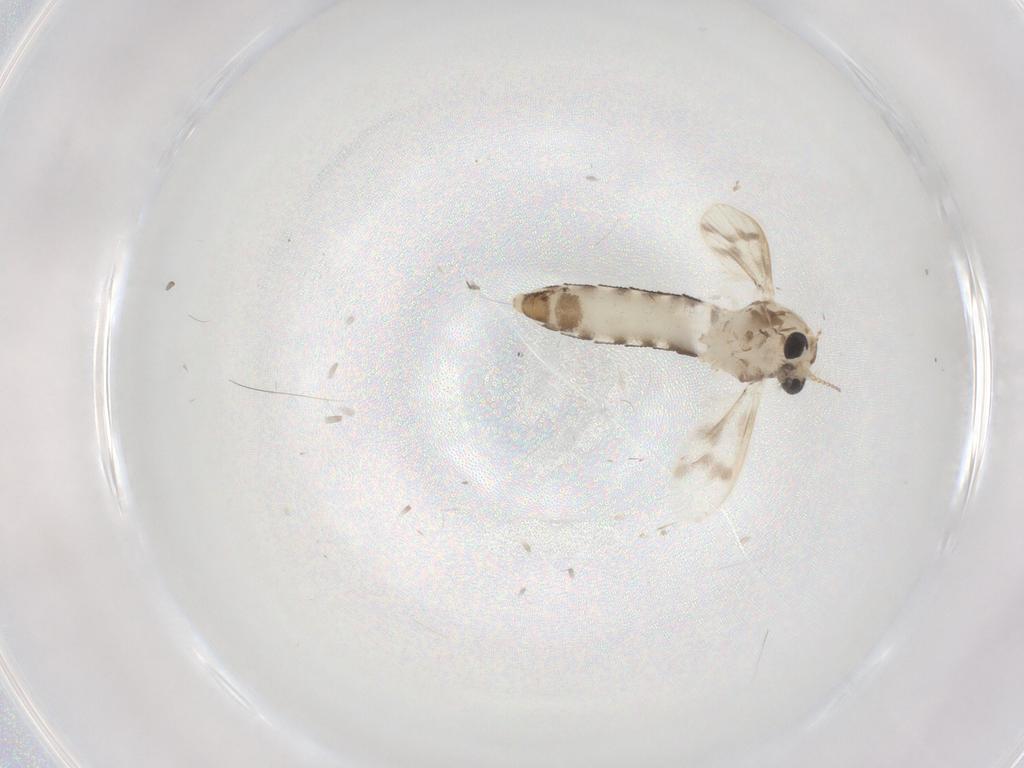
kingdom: Animalia
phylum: Arthropoda
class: Insecta
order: Diptera
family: Corethrellidae
